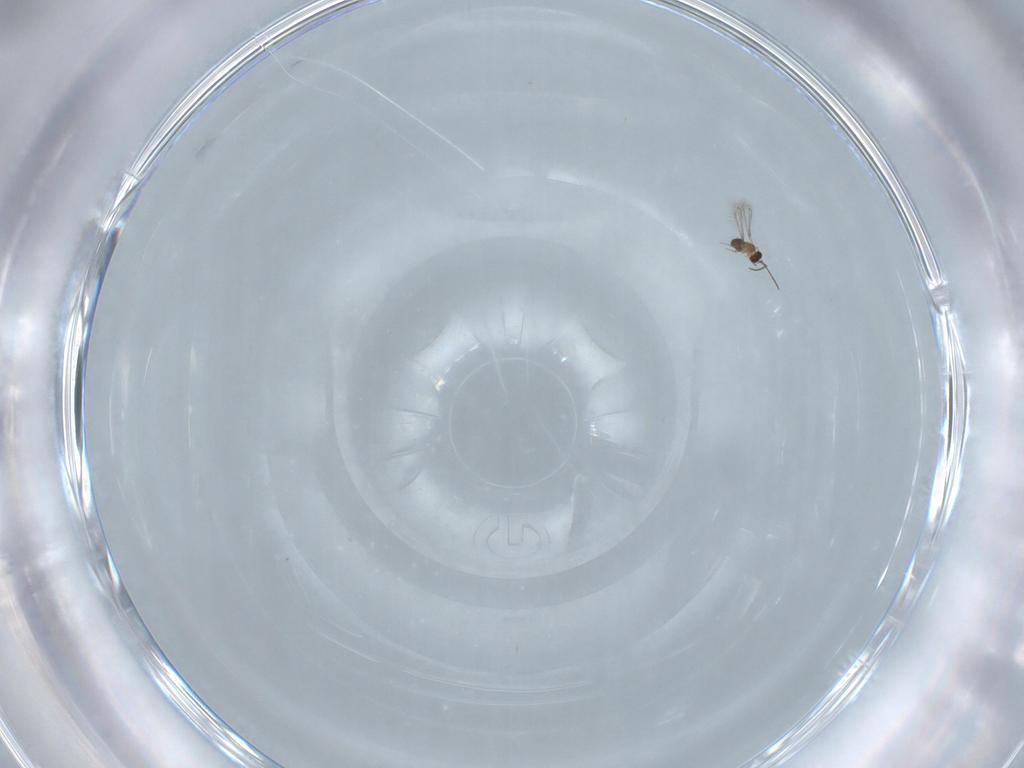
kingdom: Animalia
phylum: Arthropoda
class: Insecta
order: Hymenoptera
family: Mymaridae
